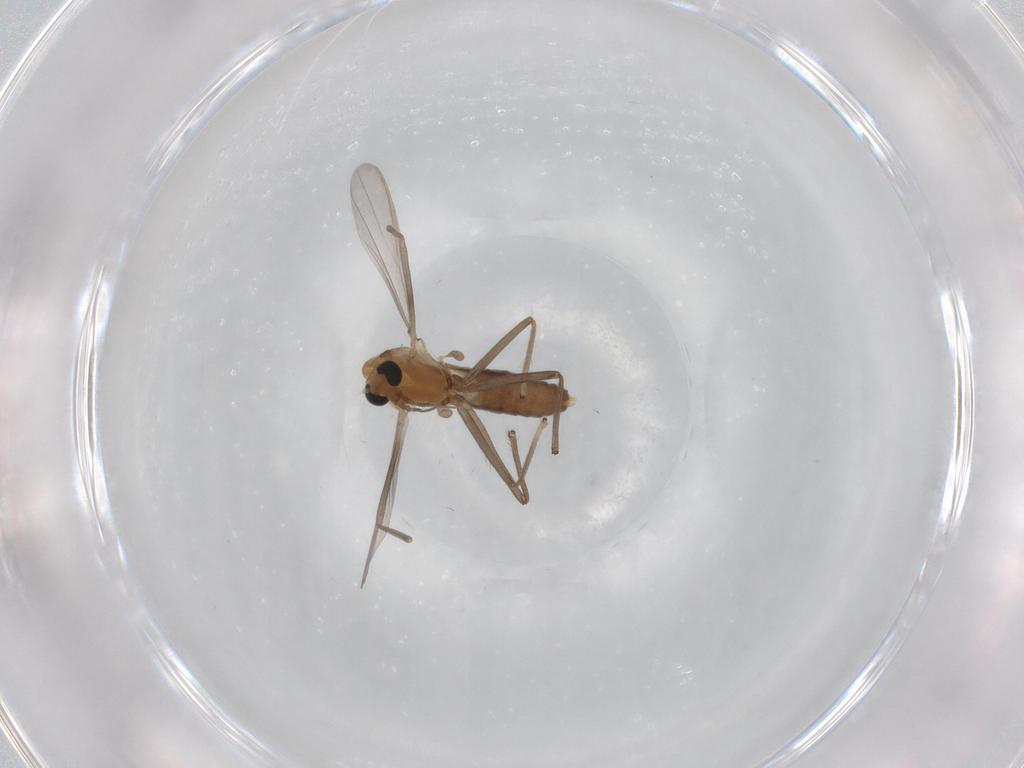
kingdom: Animalia
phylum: Arthropoda
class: Insecta
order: Diptera
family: Chironomidae
